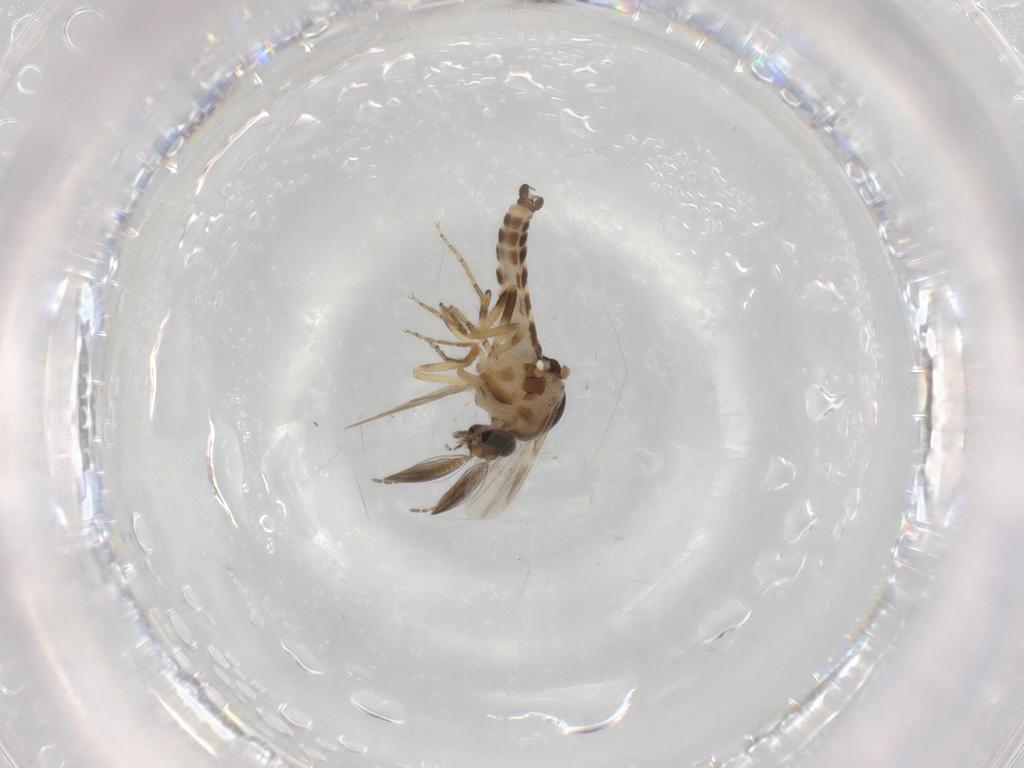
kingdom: Animalia
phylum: Arthropoda
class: Insecta
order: Diptera
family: Ceratopogonidae
